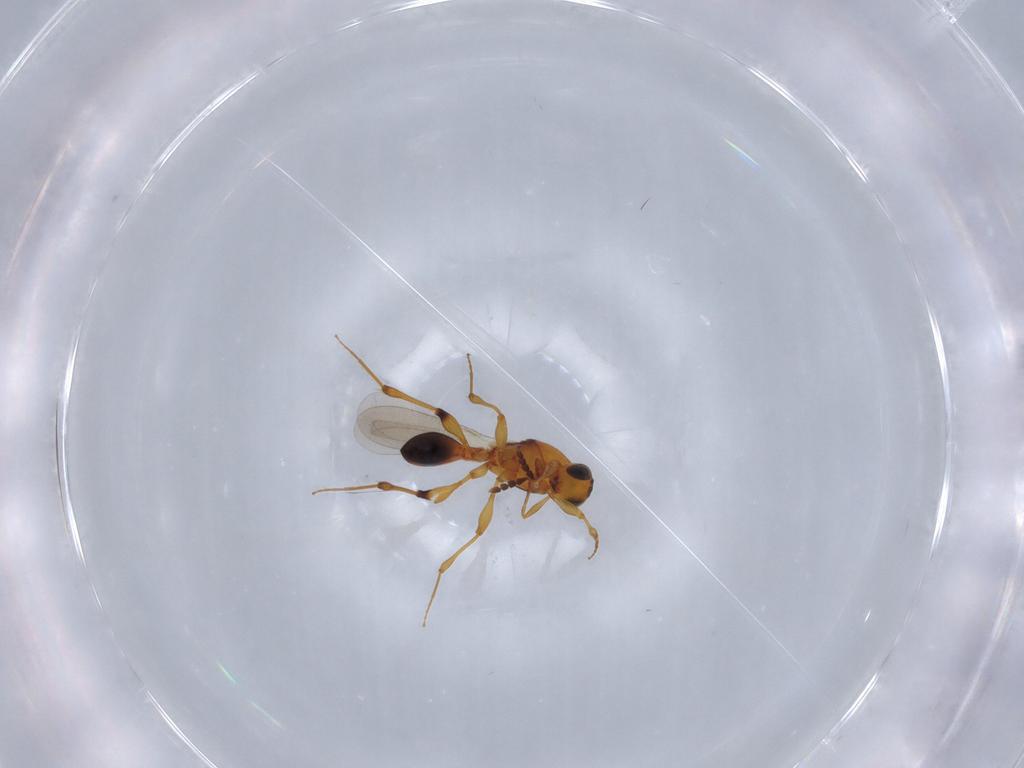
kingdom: Animalia
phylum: Arthropoda
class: Insecta
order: Hymenoptera
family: Platygastridae
